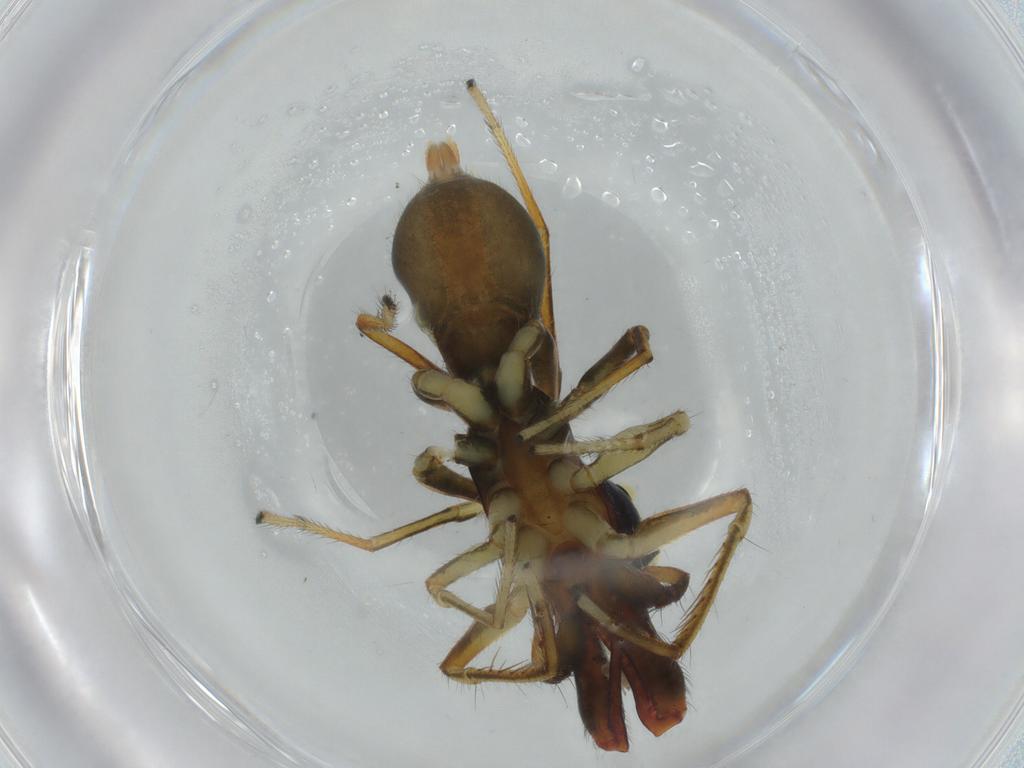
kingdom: Animalia
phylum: Arthropoda
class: Arachnida
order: Araneae
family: Salticidae
